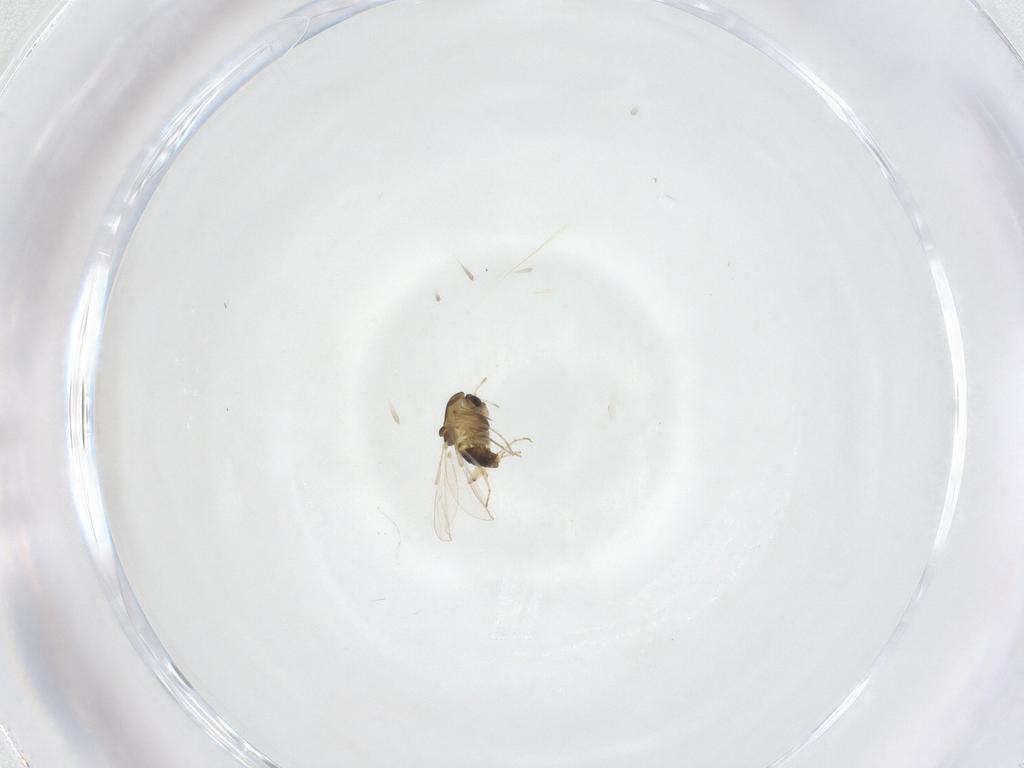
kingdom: Animalia
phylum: Arthropoda
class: Insecta
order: Diptera
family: Chironomidae
